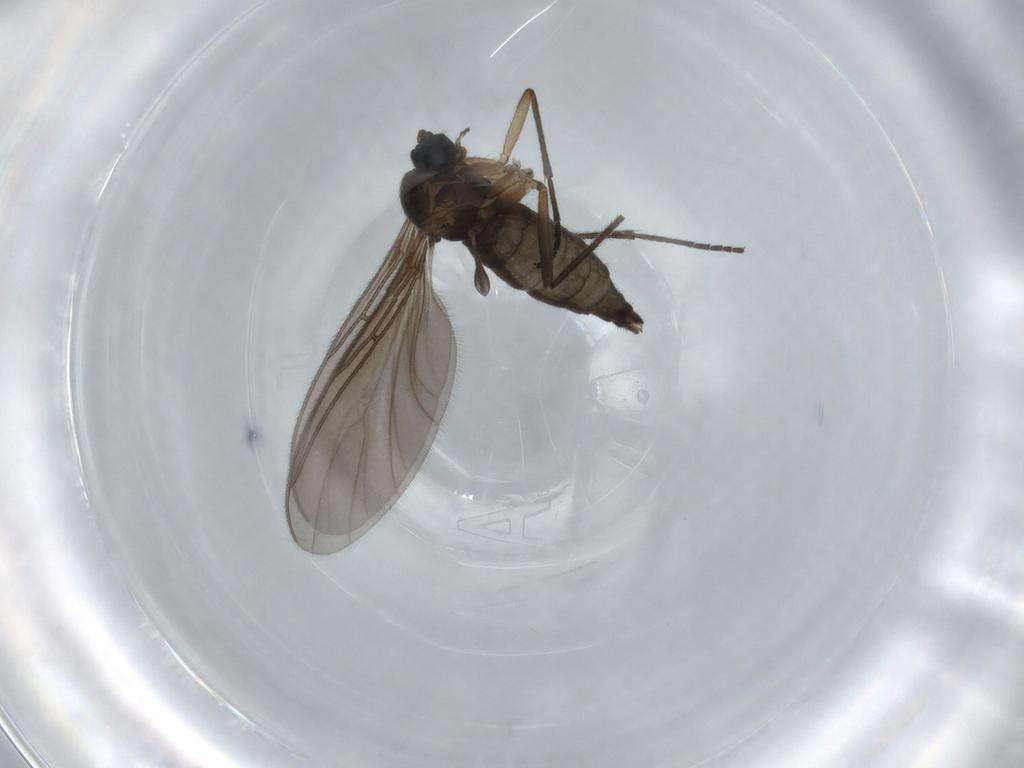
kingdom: Animalia
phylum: Arthropoda
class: Insecta
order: Diptera
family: Sciaridae
